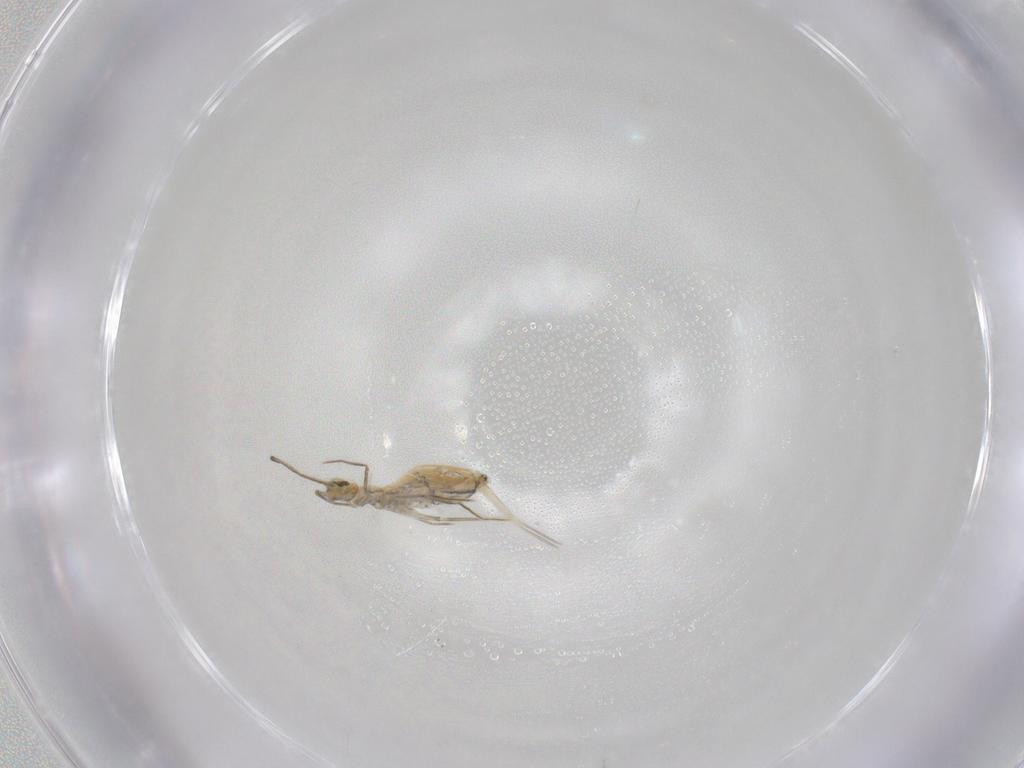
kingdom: Animalia
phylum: Arthropoda
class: Collembola
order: Entomobryomorpha
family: Entomobryidae
